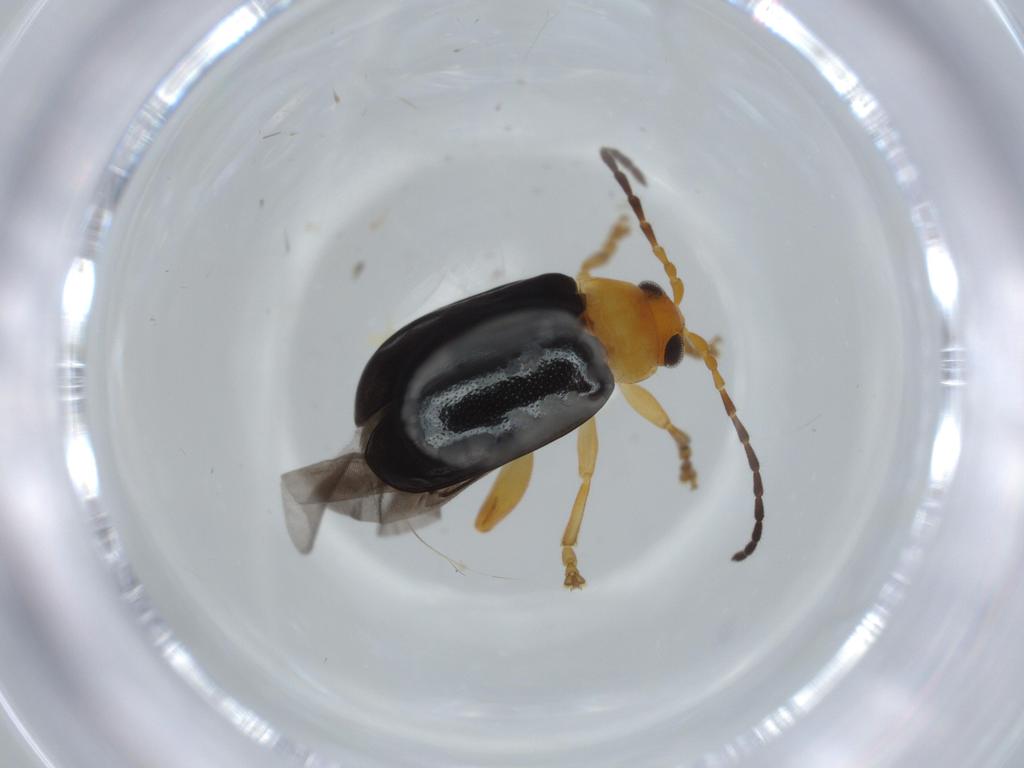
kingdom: Animalia
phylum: Arthropoda
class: Insecta
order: Coleoptera
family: Chrysomelidae
